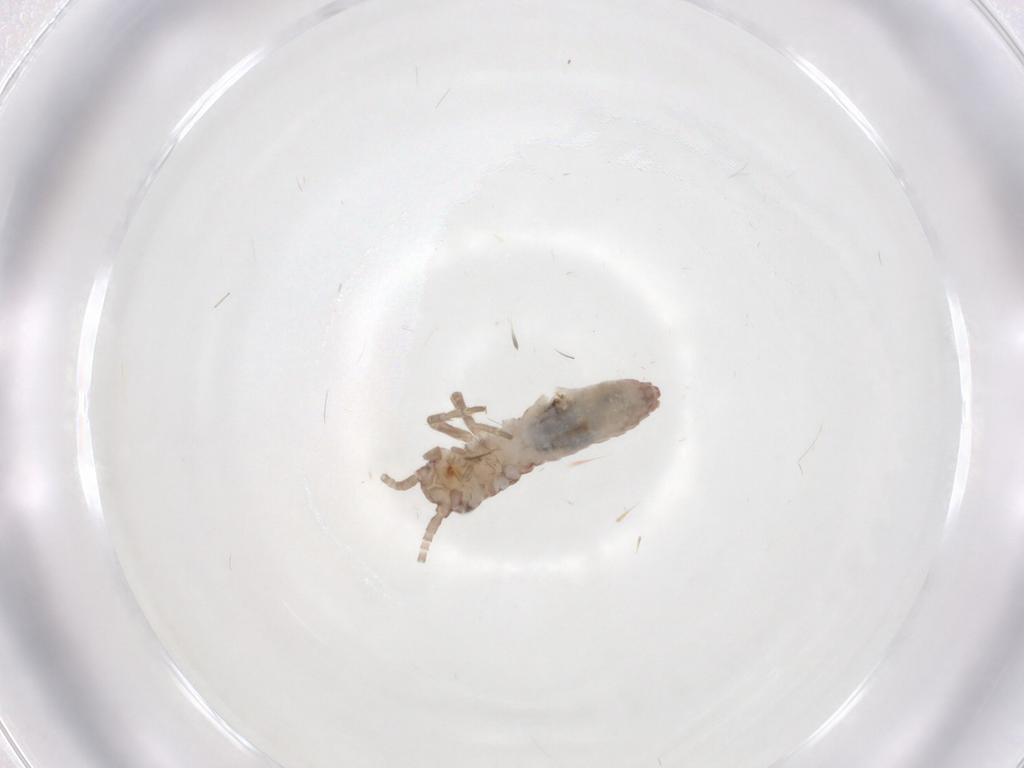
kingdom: Animalia
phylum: Arthropoda
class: Insecta
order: Orthoptera
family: Mogoplistidae
